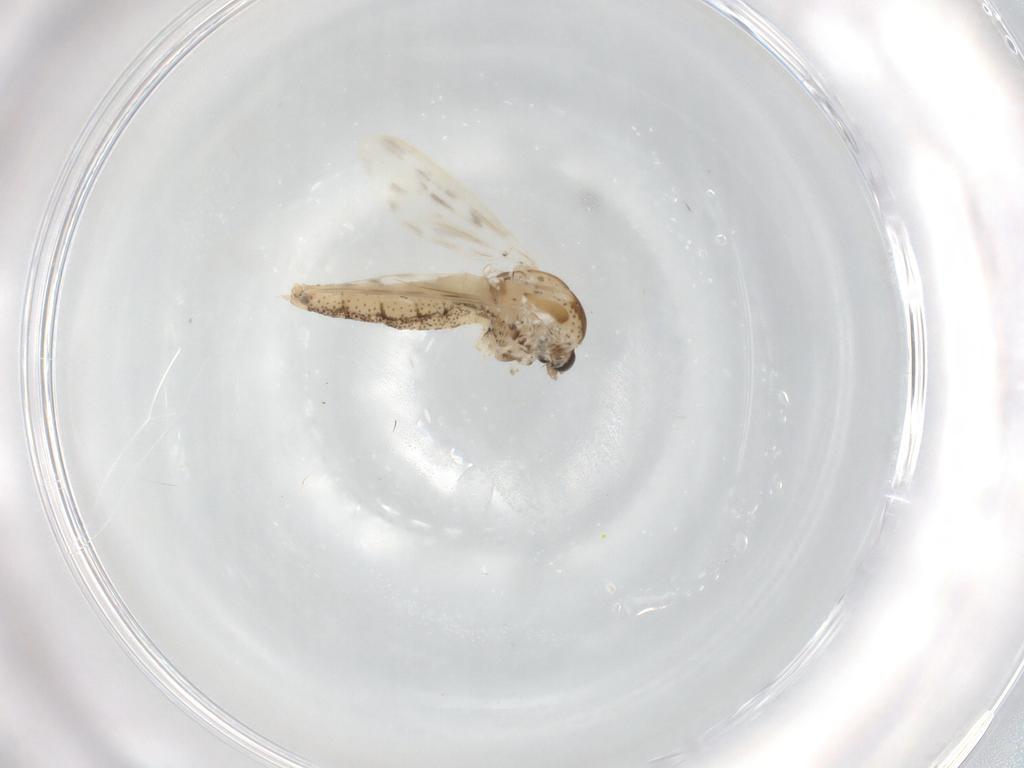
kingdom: Animalia
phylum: Arthropoda
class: Insecta
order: Diptera
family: Chaoboridae
